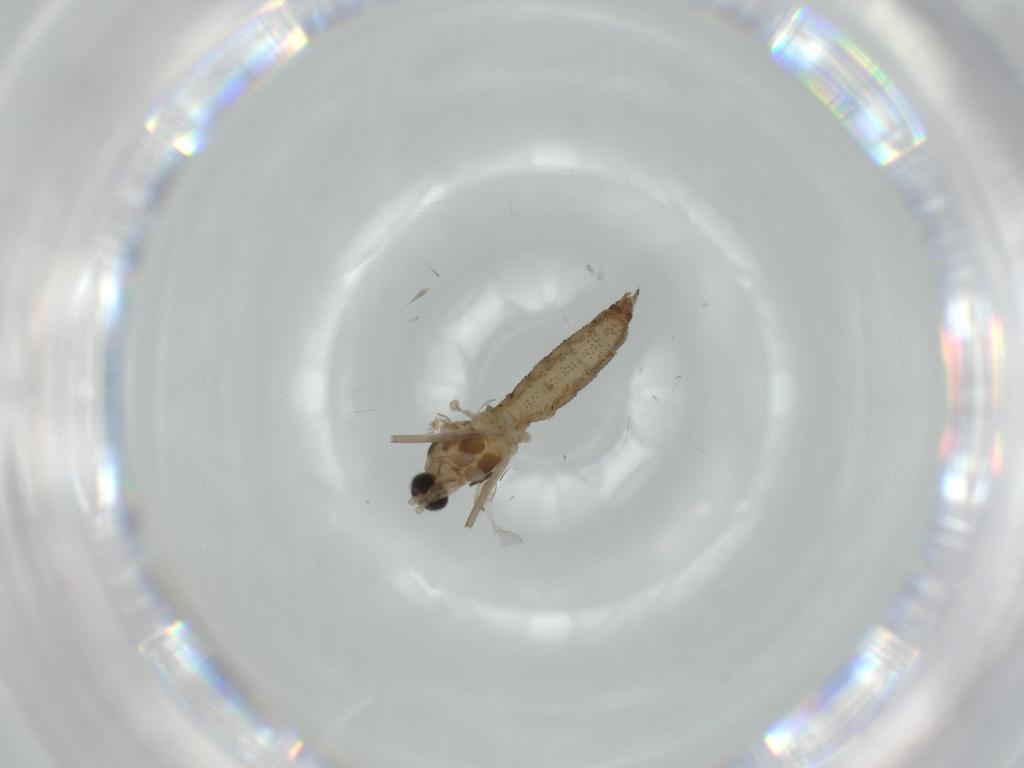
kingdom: Animalia
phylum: Arthropoda
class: Insecta
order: Diptera
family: Cecidomyiidae
